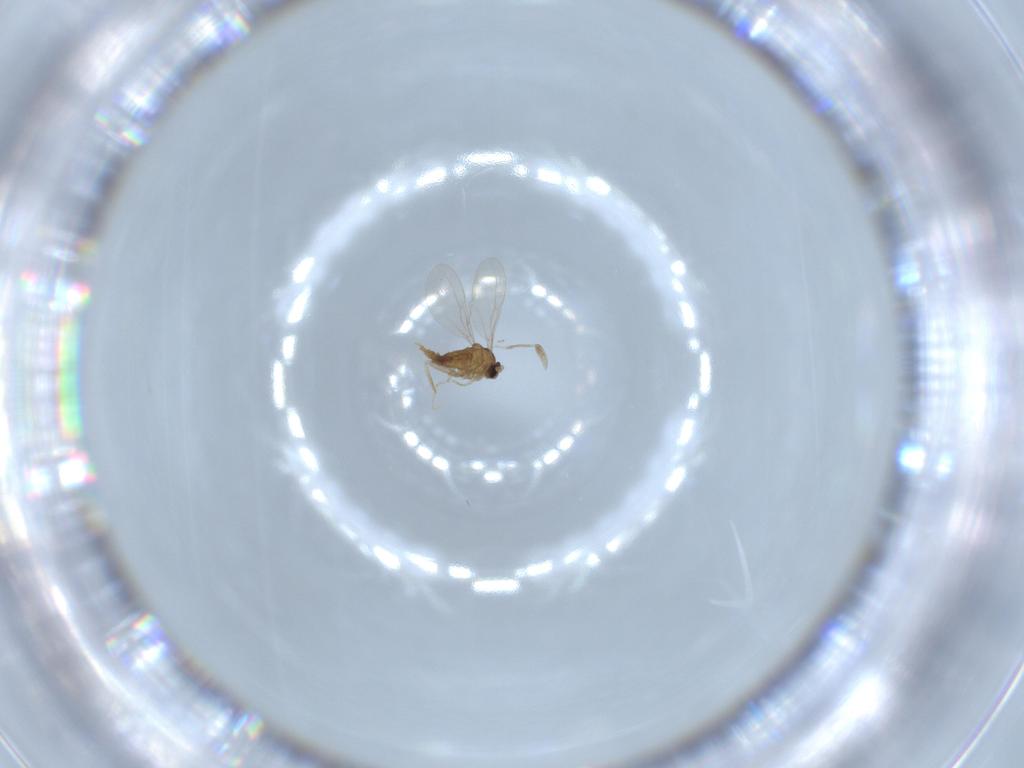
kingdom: Animalia
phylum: Arthropoda
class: Insecta
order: Diptera
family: Cecidomyiidae
